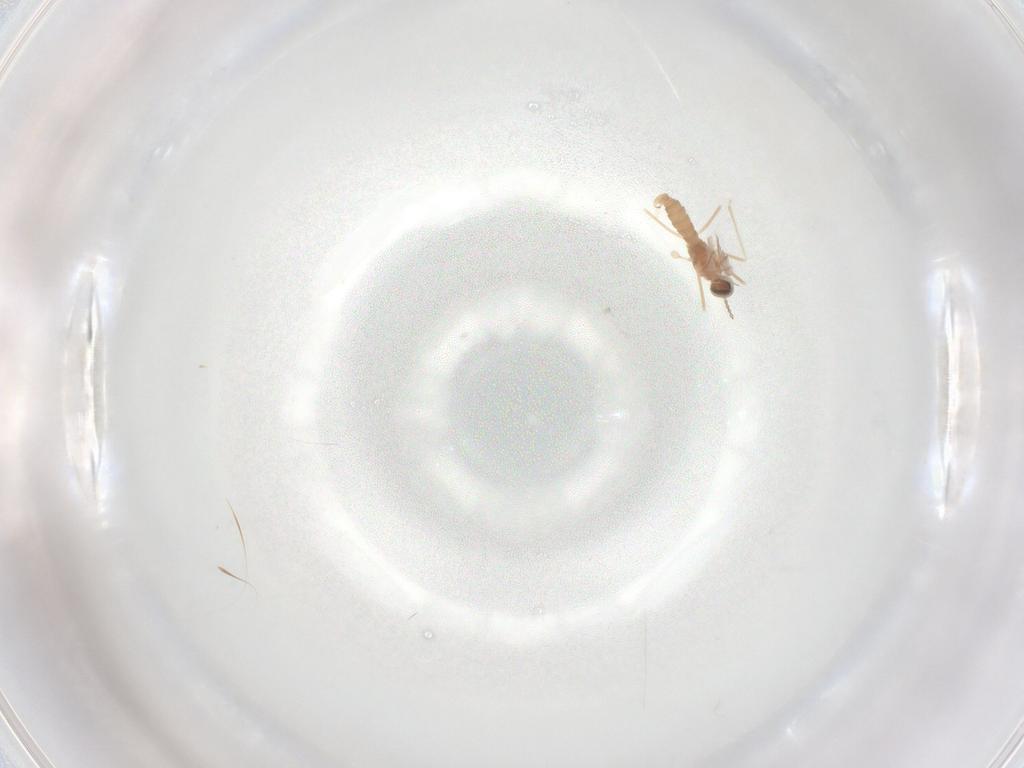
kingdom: Animalia
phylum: Arthropoda
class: Insecta
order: Diptera
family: Cecidomyiidae
